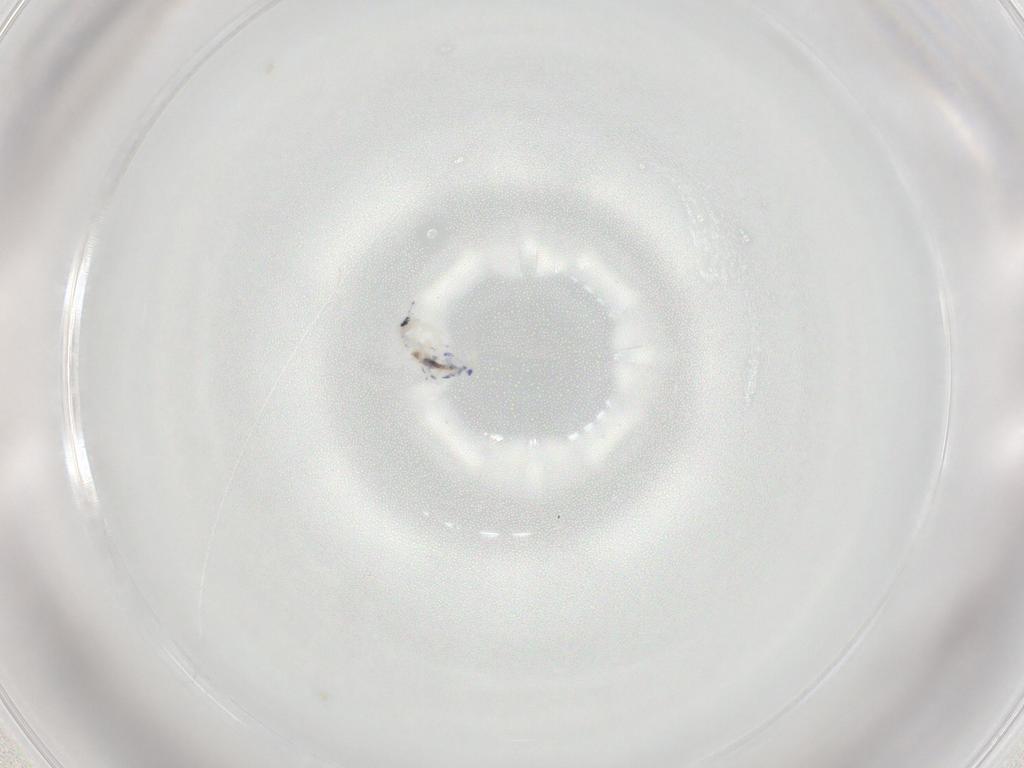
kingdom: Animalia
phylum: Arthropoda
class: Collembola
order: Entomobryomorpha
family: Entomobryidae
